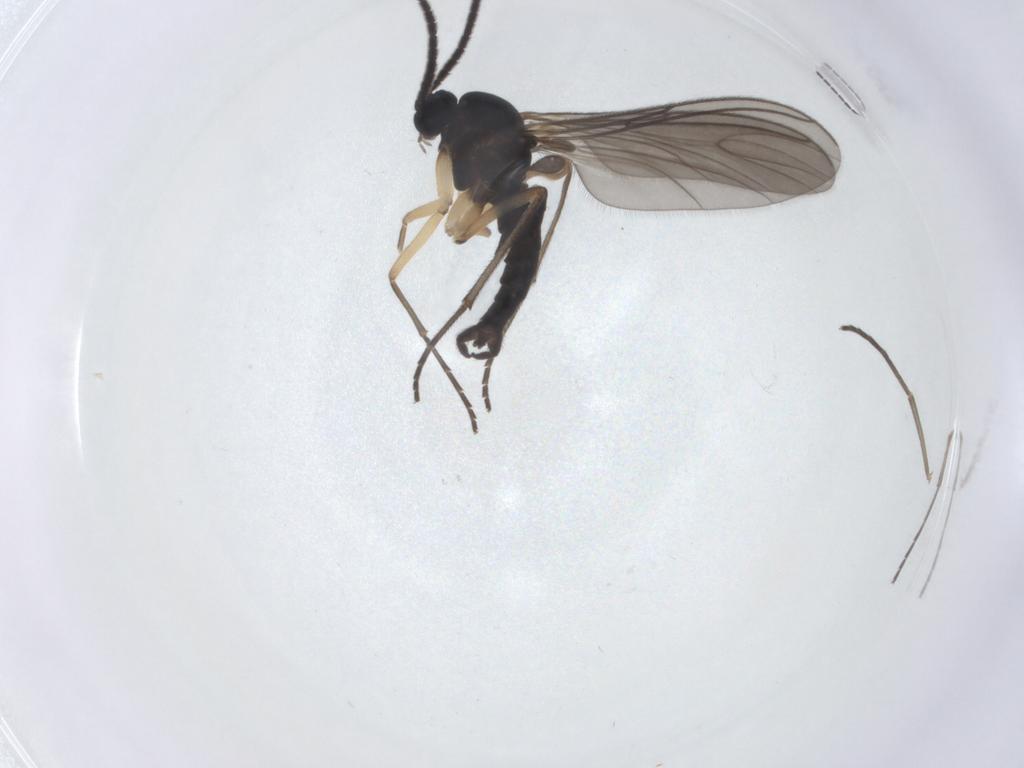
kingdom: Animalia
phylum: Arthropoda
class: Insecta
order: Diptera
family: Sciaridae
